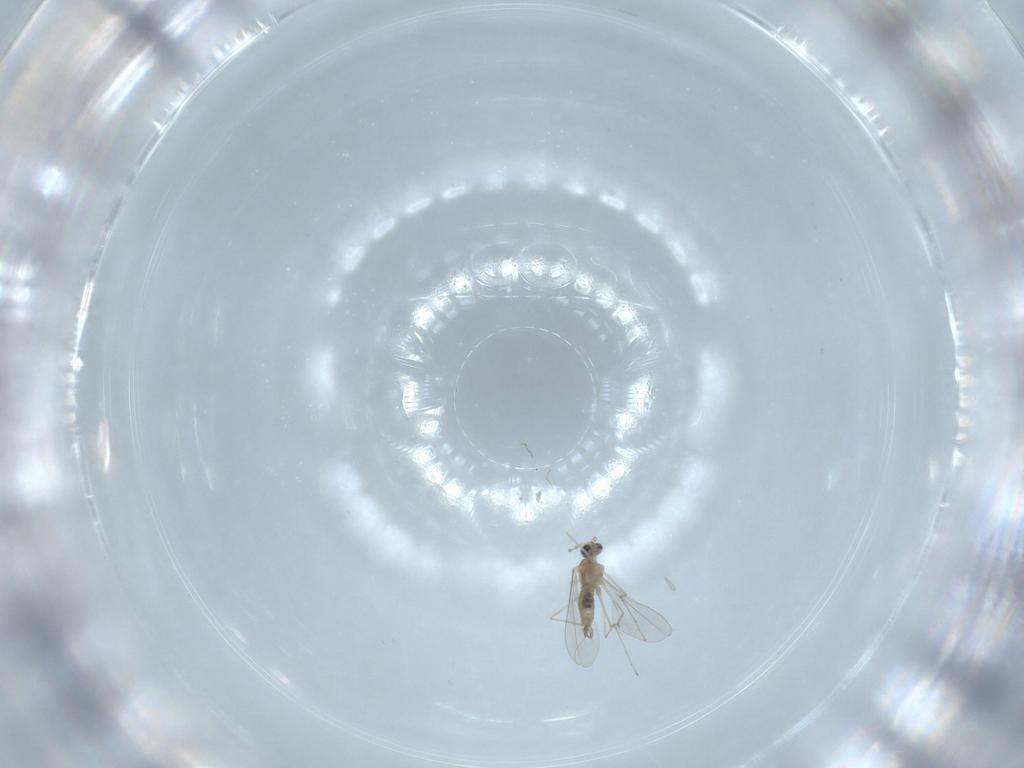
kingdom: Animalia
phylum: Arthropoda
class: Insecta
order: Diptera
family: Cecidomyiidae
